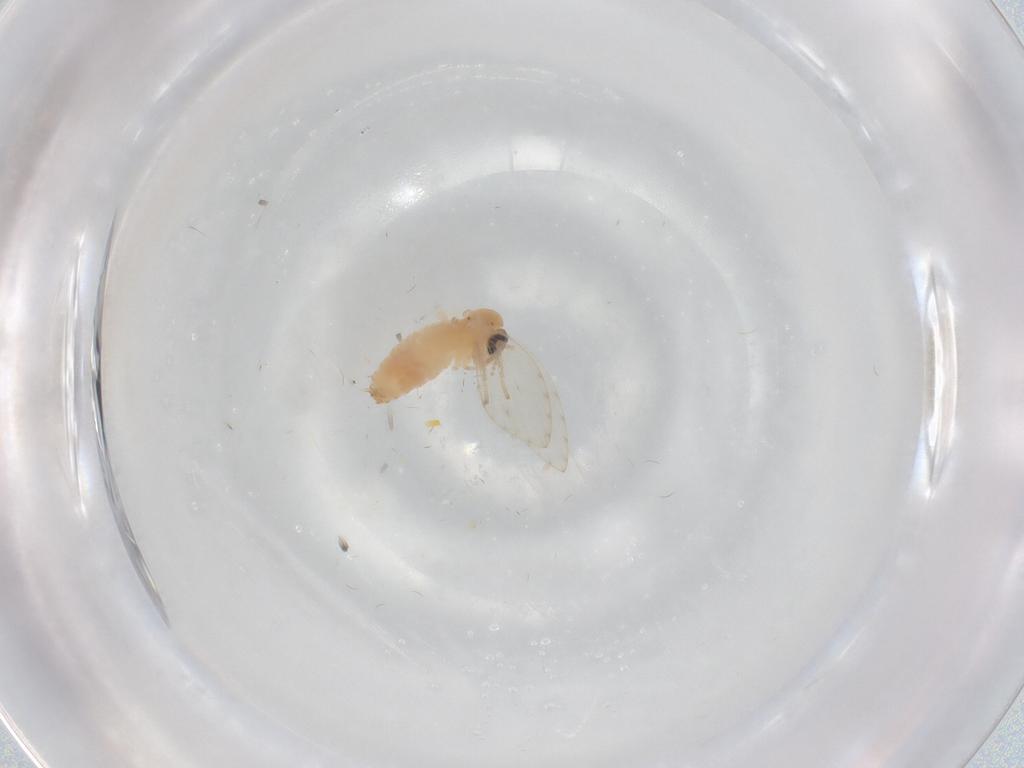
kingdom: Animalia
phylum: Arthropoda
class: Insecta
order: Diptera
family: Psychodidae
